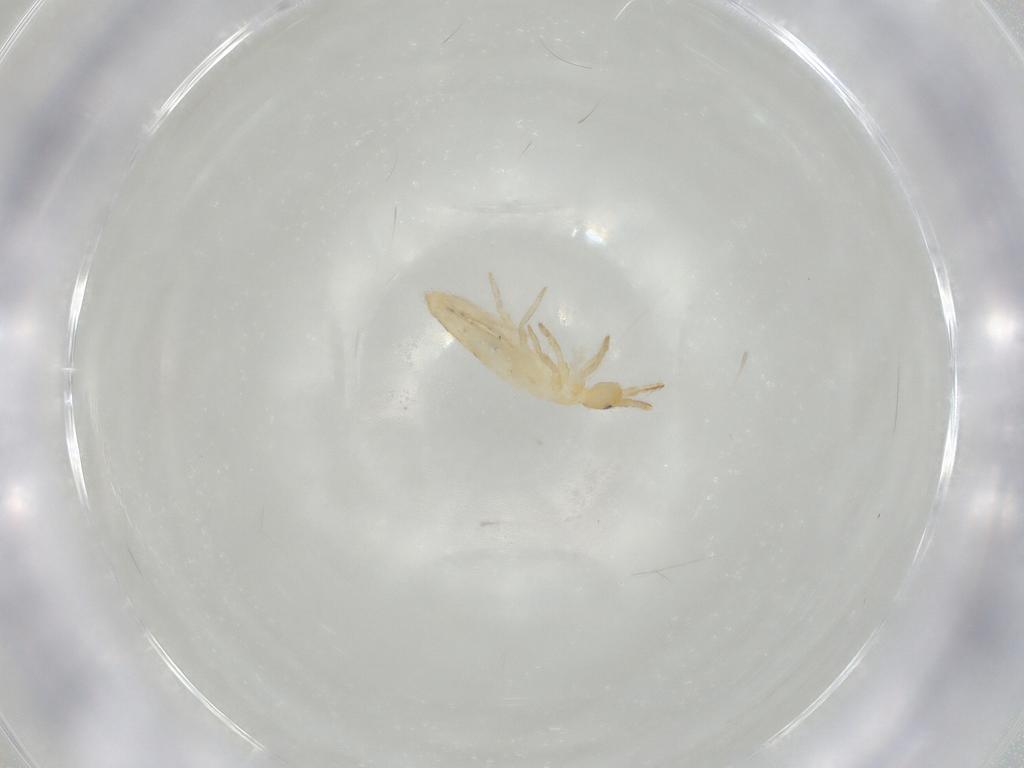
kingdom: Animalia
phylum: Arthropoda
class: Collembola
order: Entomobryomorpha
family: Entomobryidae
